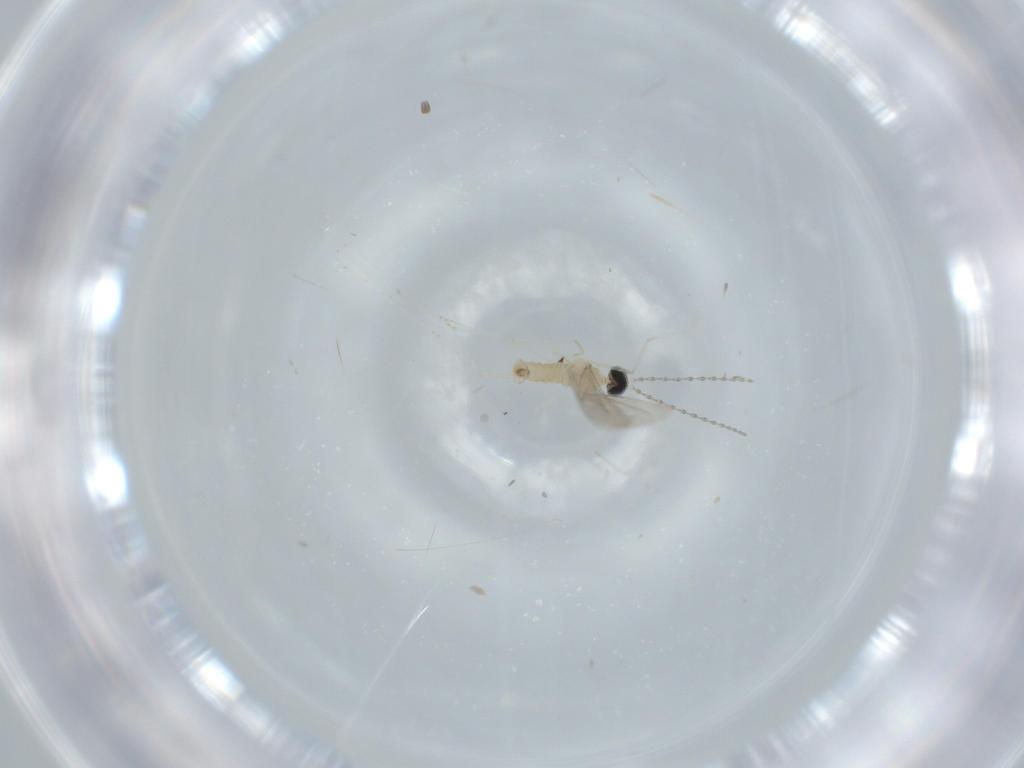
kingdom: Animalia
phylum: Arthropoda
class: Insecta
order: Diptera
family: Cecidomyiidae
